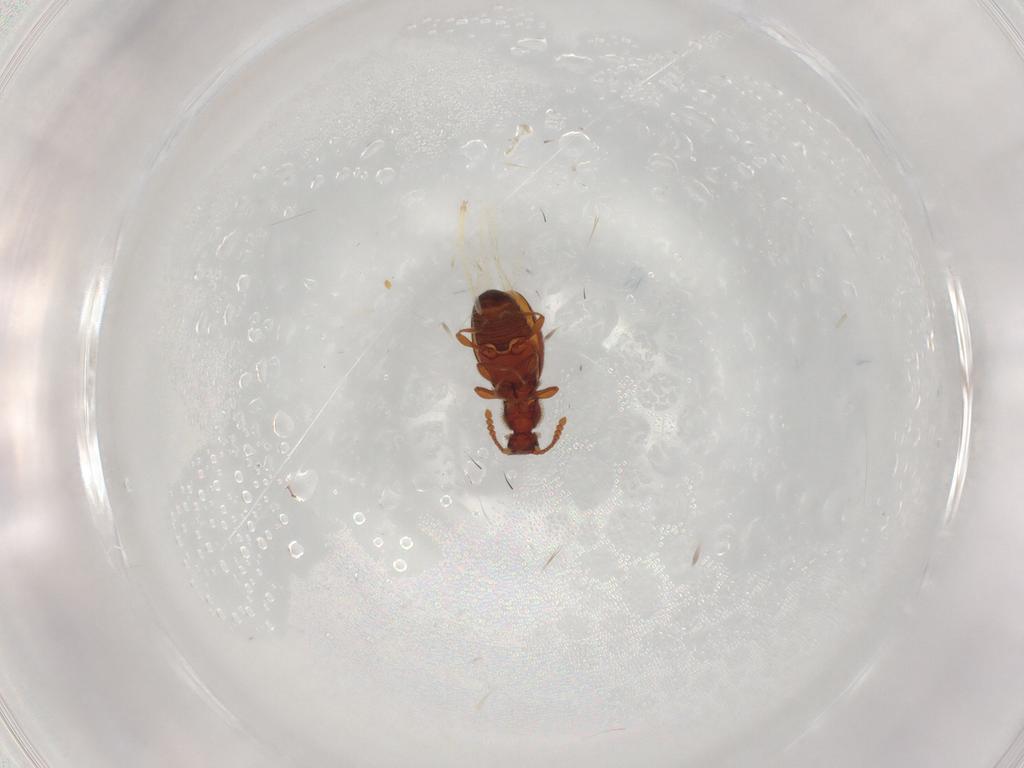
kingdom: Animalia
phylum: Arthropoda
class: Insecta
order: Coleoptera
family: Staphylinidae
